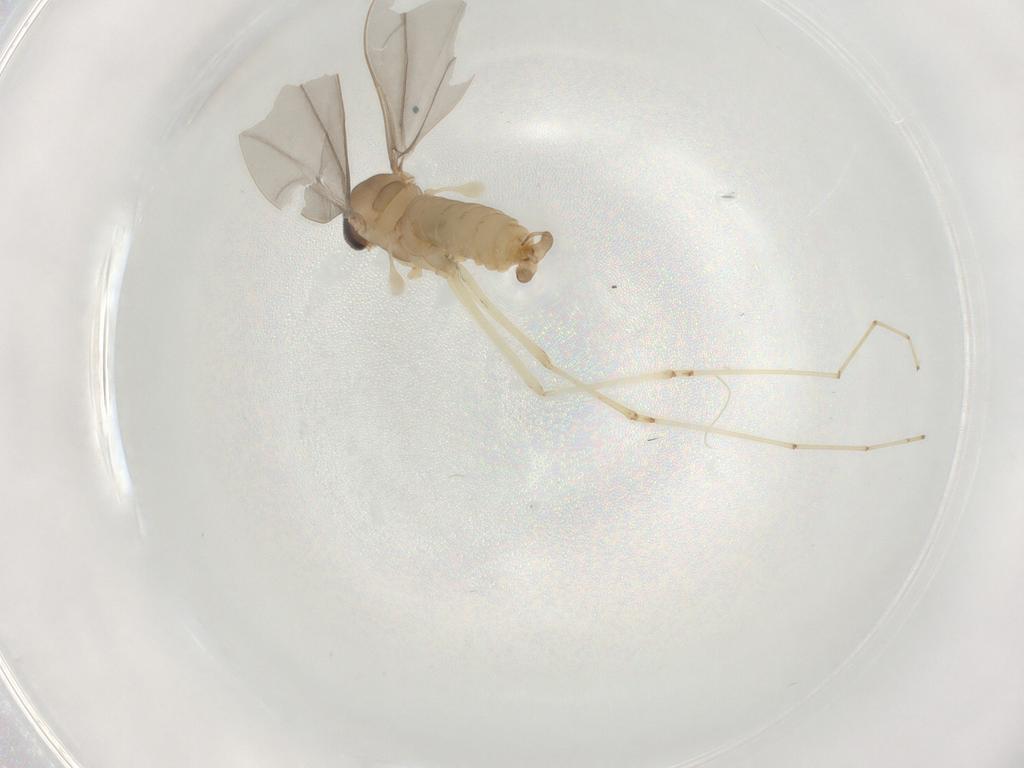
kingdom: Animalia
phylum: Arthropoda
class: Insecta
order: Diptera
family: Cecidomyiidae
